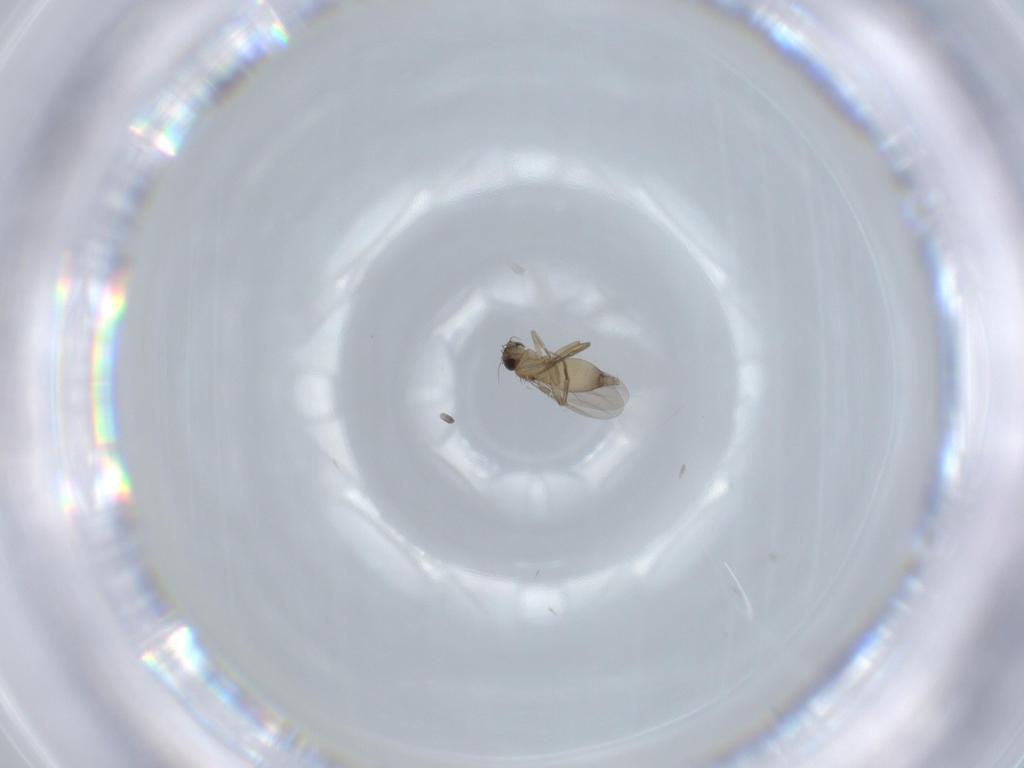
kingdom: Animalia
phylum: Arthropoda
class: Insecta
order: Diptera
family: Phoridae
